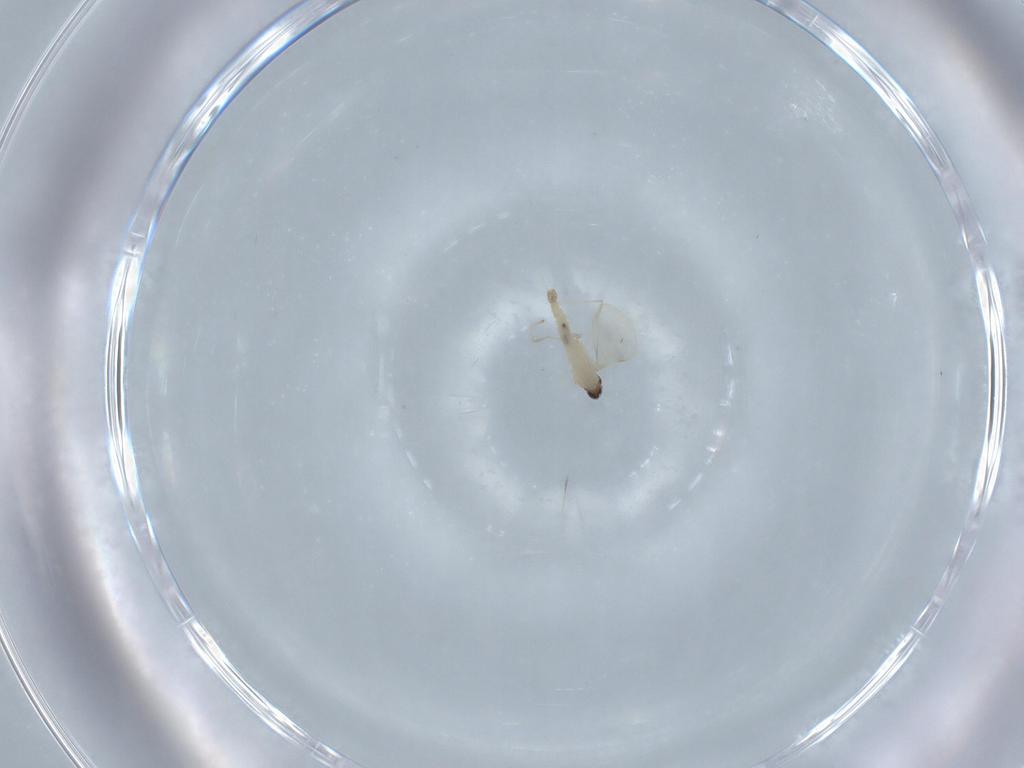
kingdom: Animalia
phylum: Arthropoda
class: Insecta
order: Diptera
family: Cecidomyiidae
